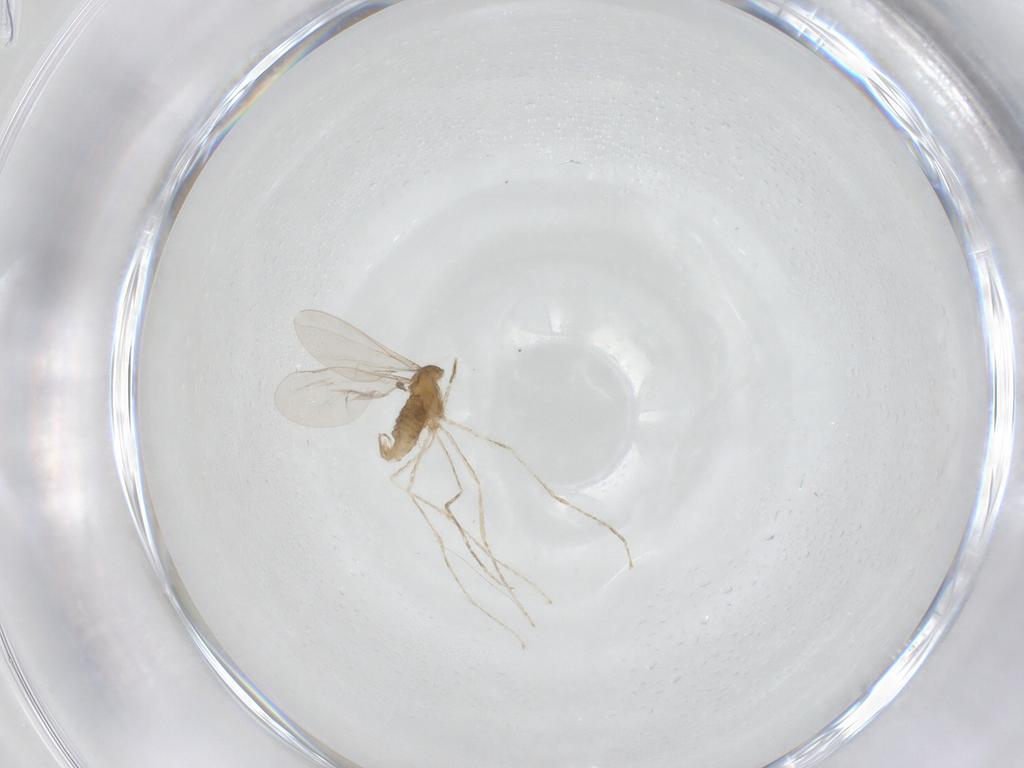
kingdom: Animalia
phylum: Arthropoda
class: Insecta
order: Diptera
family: Cecidomyiidae
